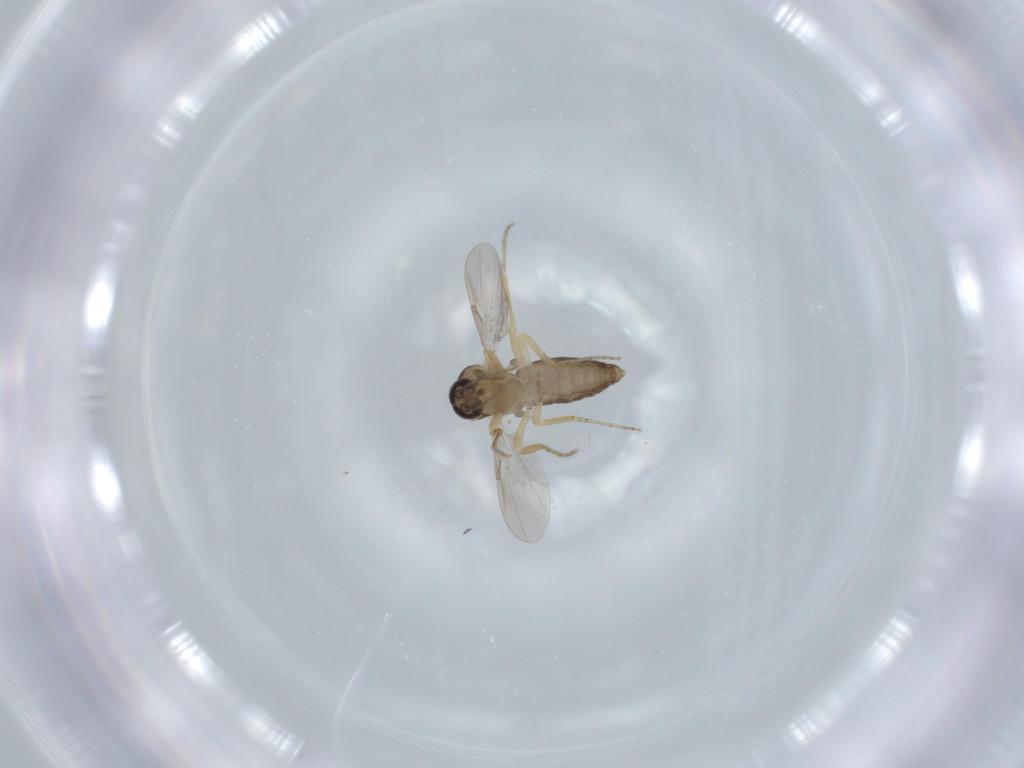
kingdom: Animalia
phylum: Arthropoda
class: Insecta
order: Diptera
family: Ceratopogonidae
